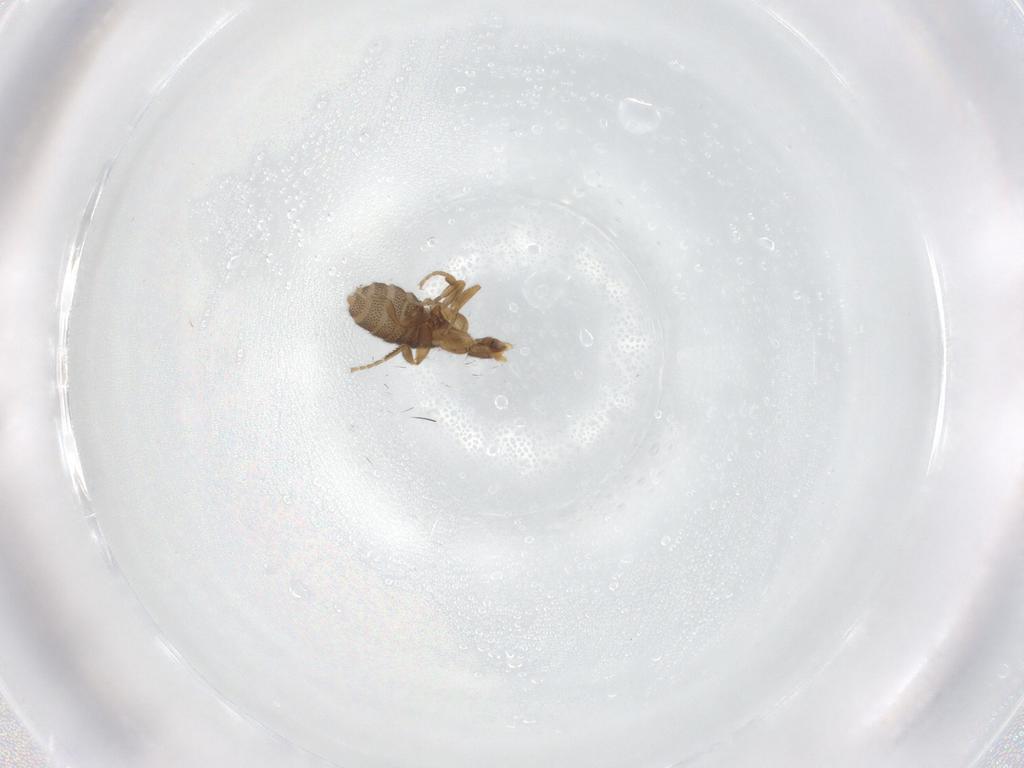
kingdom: Animalia
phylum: Arthropoda
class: Insecta
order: Diptera
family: Phoridae
